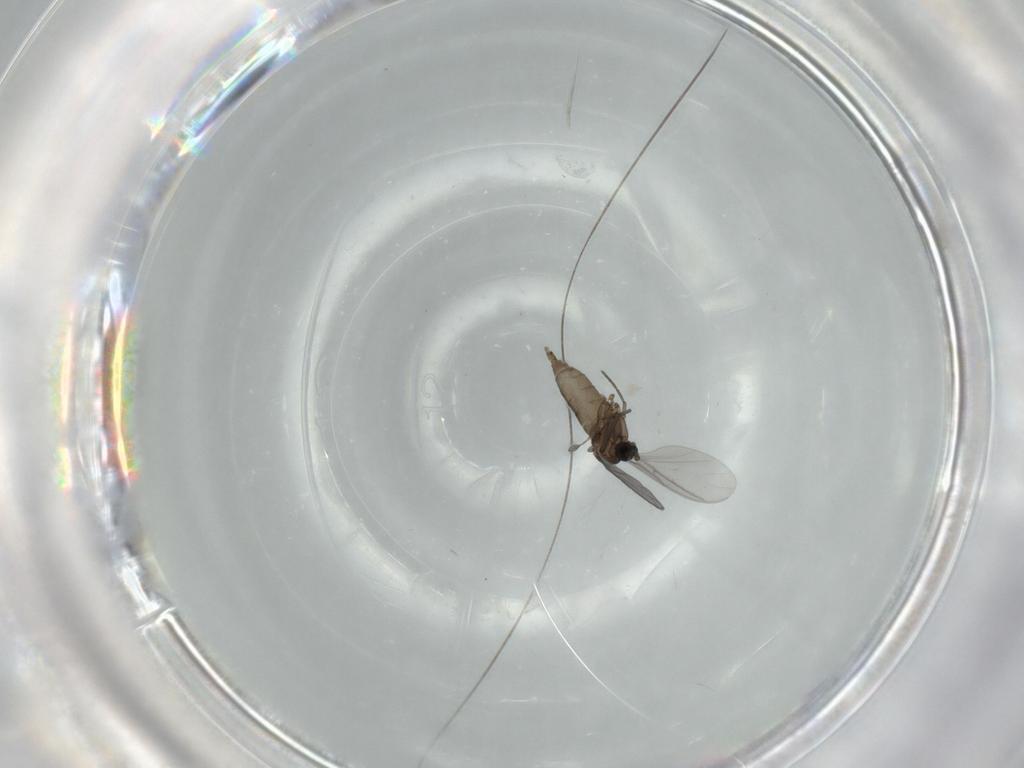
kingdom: Animalia
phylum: Arthropoda
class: Insecta
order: Diptera
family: Sciaridae
